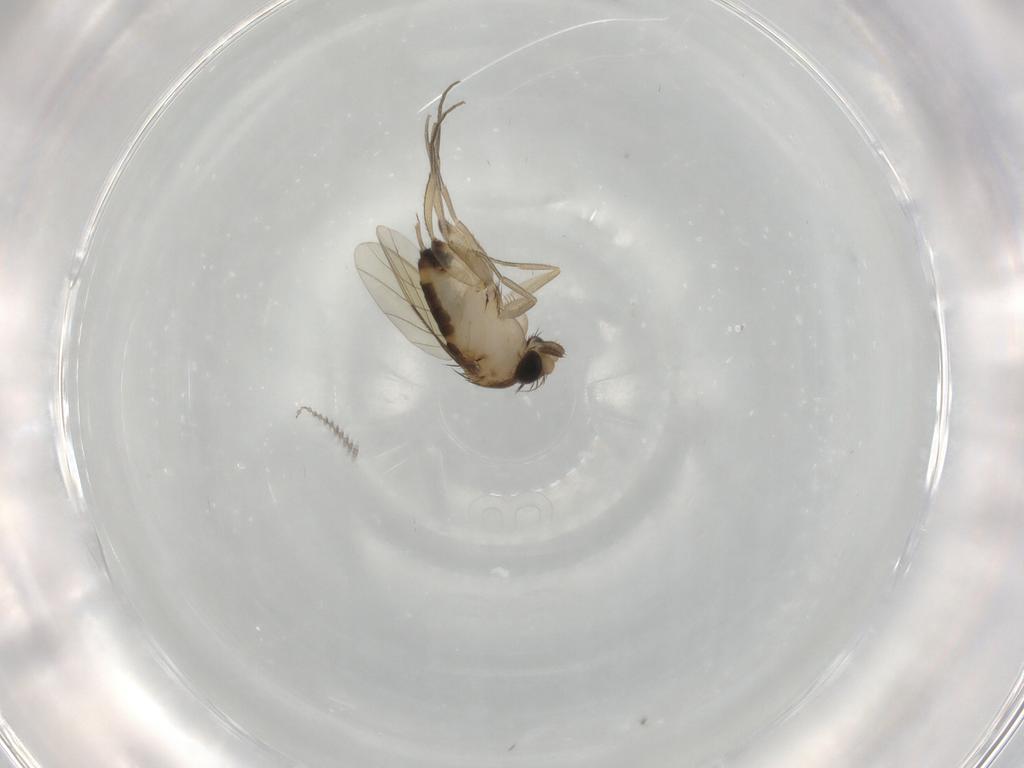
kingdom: Animalia
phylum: Arthropoda
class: Insecta
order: Diptera
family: Phoridae
